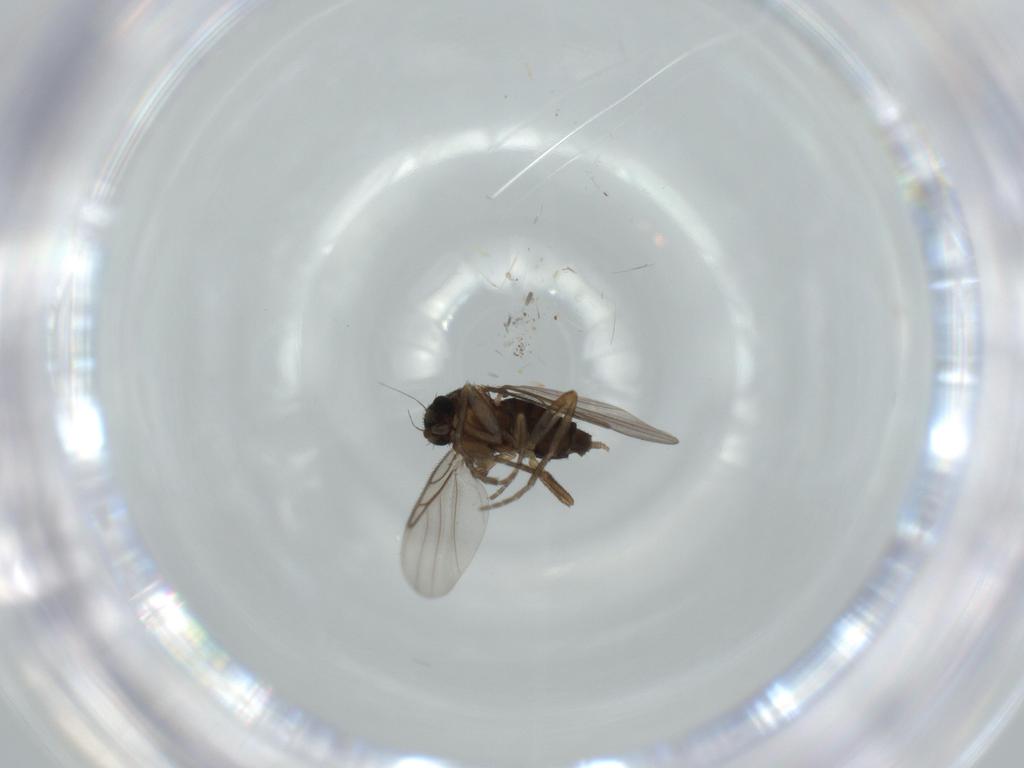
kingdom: Animalia
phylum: Arthropoda
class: Insecta
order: Diptera
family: Phoridae
